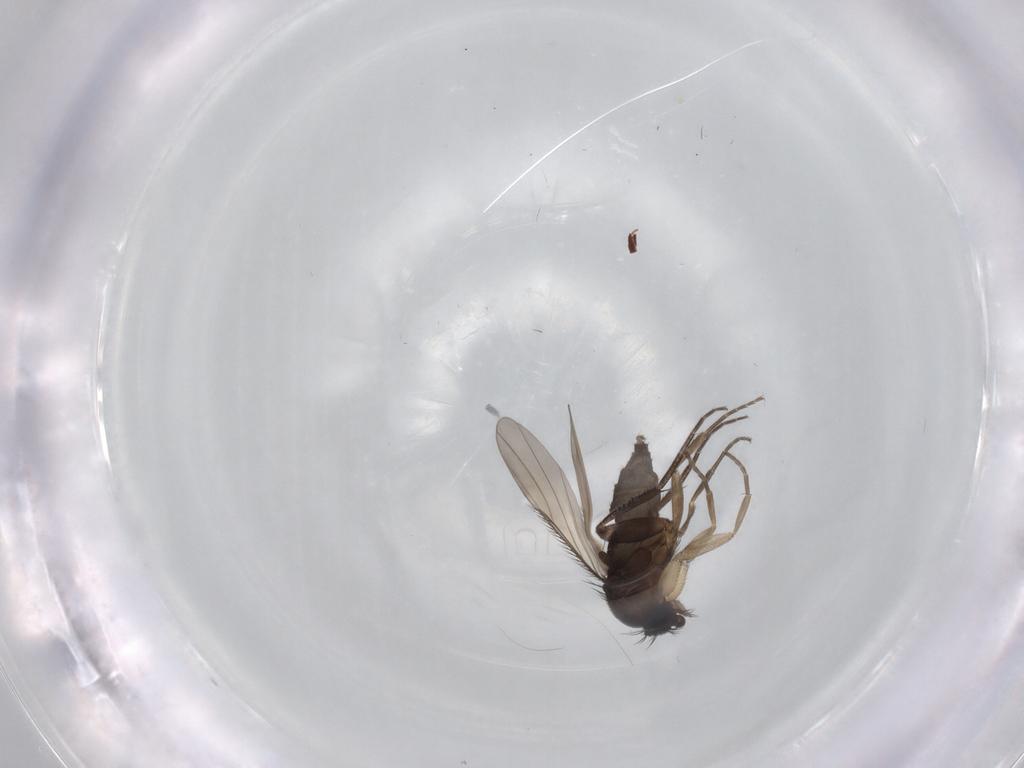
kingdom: Animalia
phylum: Arthropoda
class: Insecta
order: Diptera
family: Phoridae
